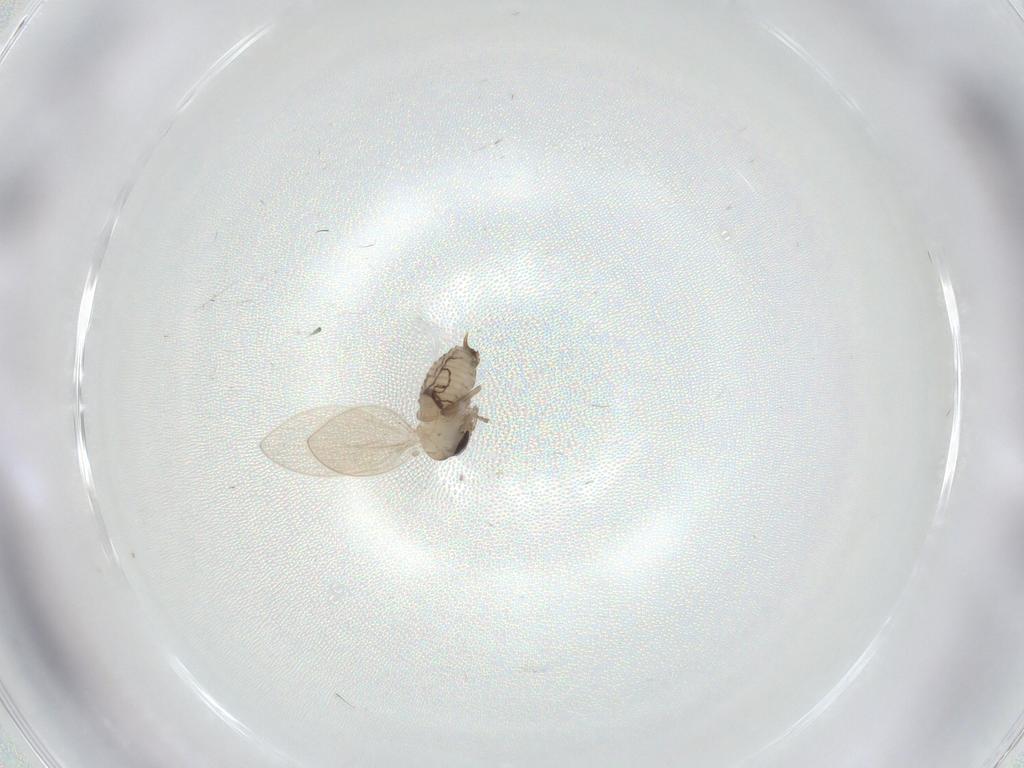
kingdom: Animalia
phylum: Arthropoda
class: Insecta
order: Diptera
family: Psychodidae
